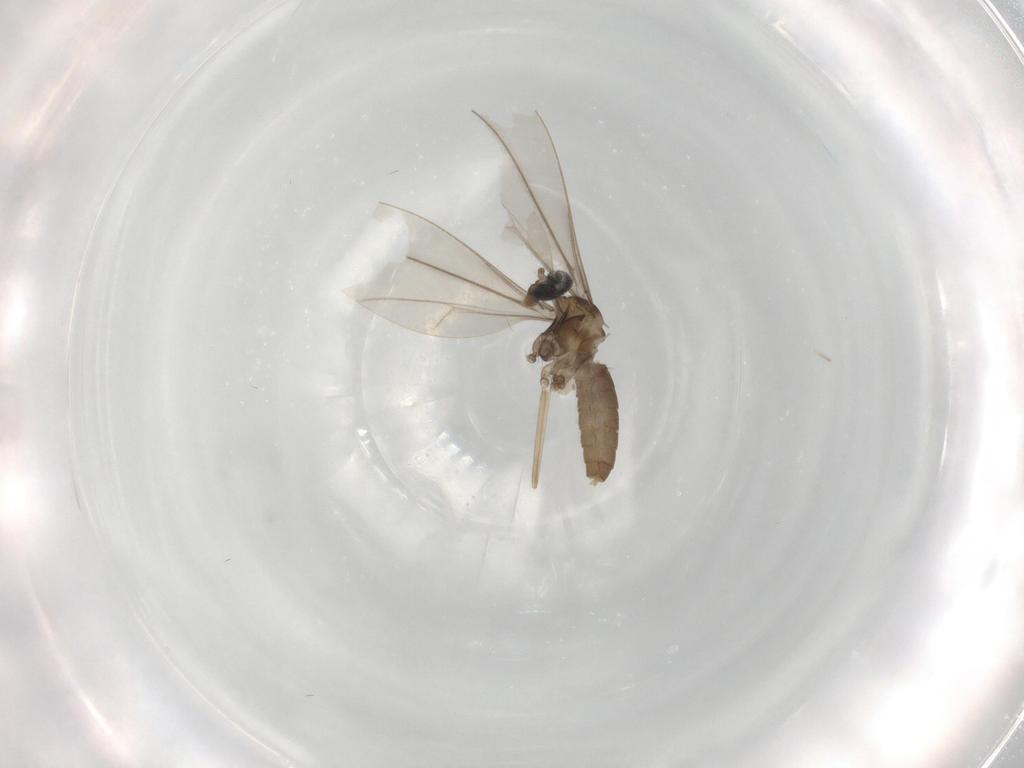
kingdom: Animalia
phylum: Arthropoda
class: Insecta
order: Diptera
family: Cecidomyiidae
